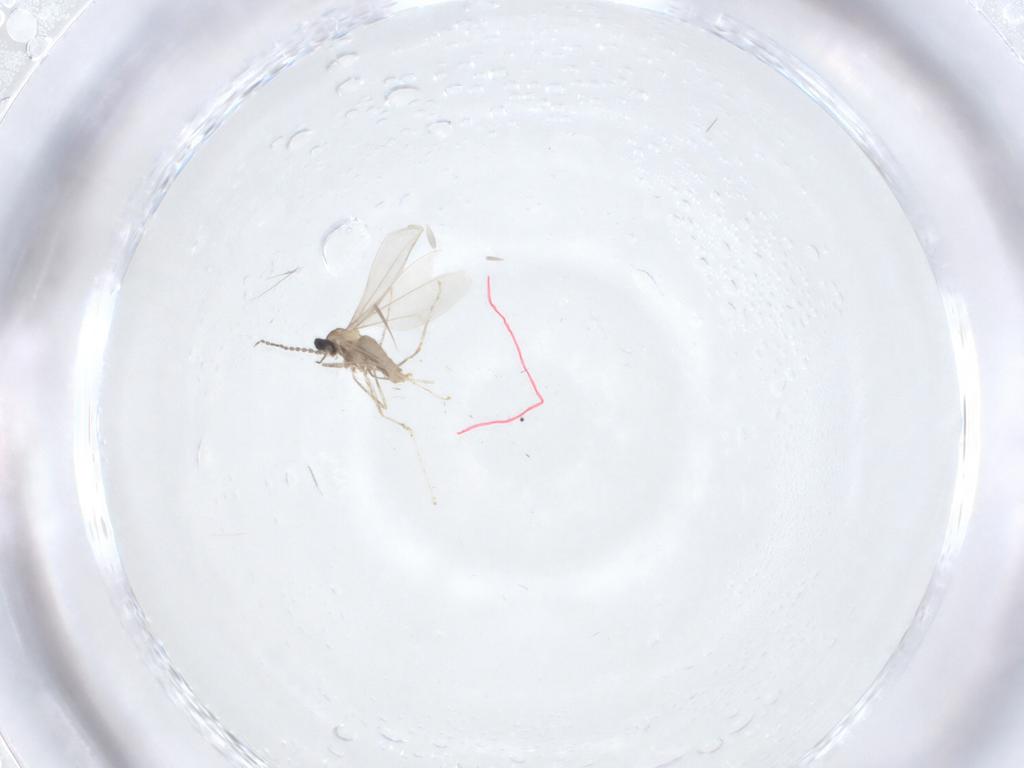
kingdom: Animalia
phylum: Arthropoda
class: Insecta
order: Diptera
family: Cecidomyiidae
